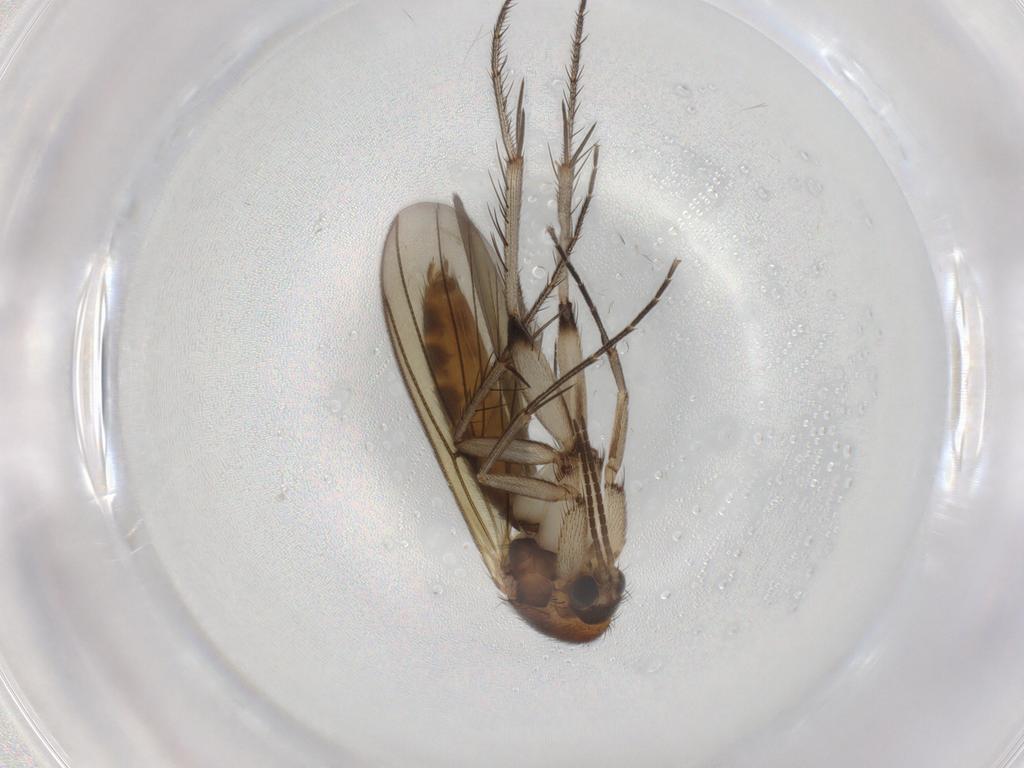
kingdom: Animalia
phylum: Arthropoda
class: Insecta
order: Diptera
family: Mycetophilidae
